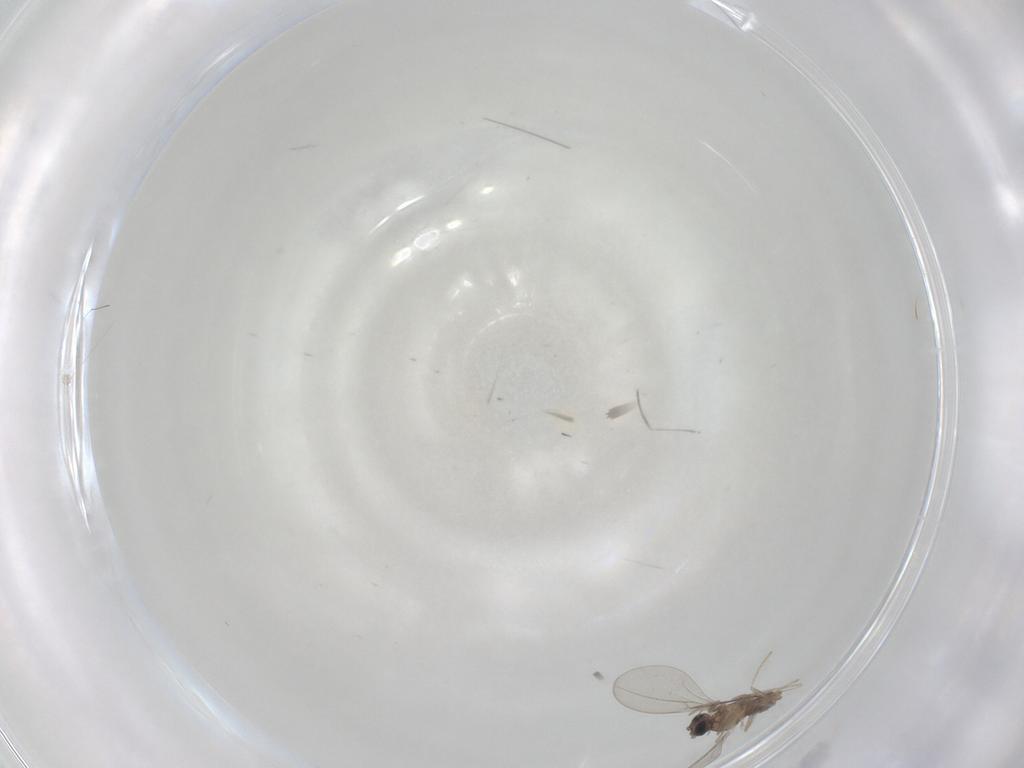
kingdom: Animalia
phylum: Arthropoda
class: Insecta
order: Diptera
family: Cecidomyiidae
